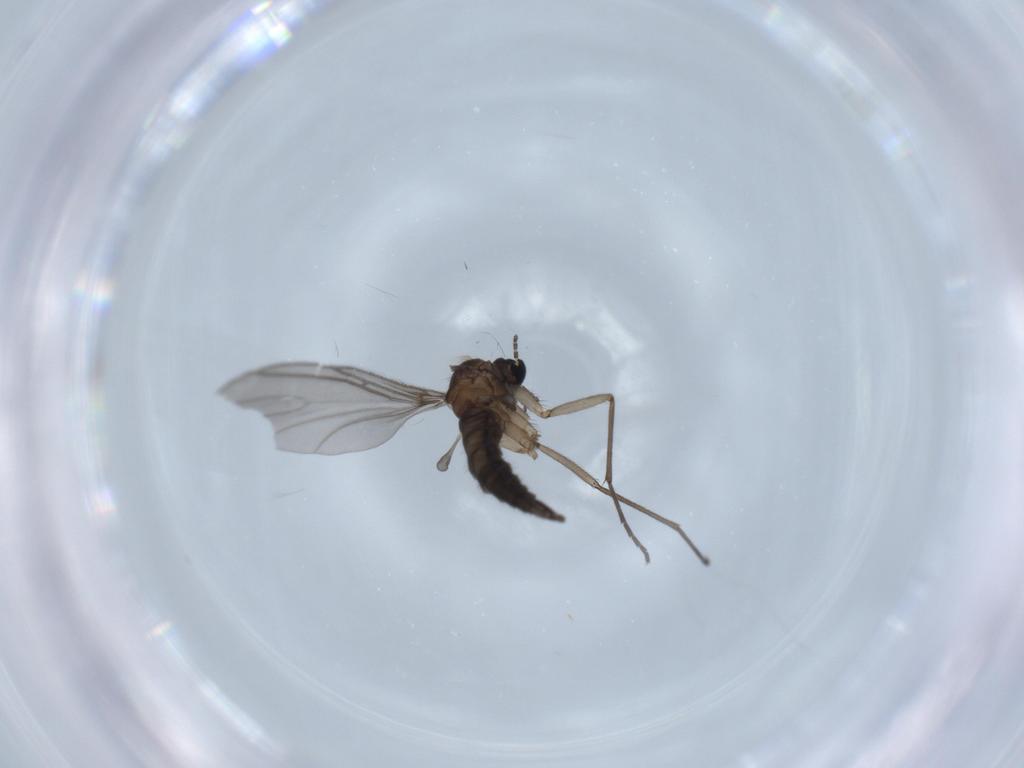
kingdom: Animalia
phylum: Arthropoda
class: Insecta
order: Diptera
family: Sciaridae
